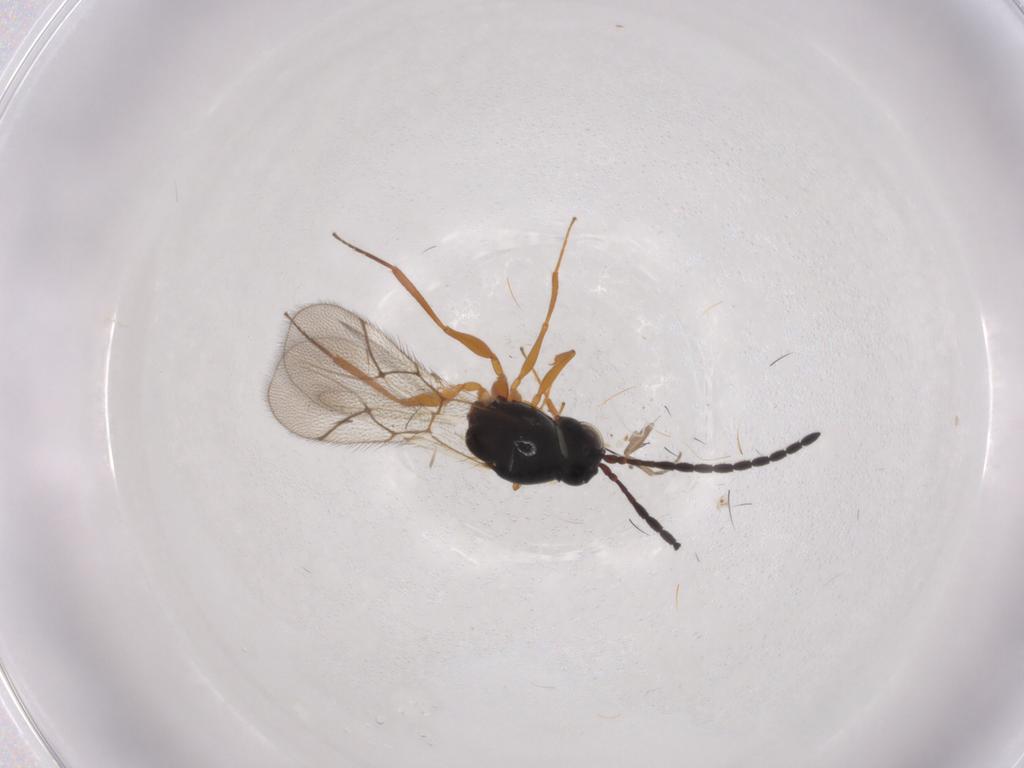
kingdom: Animalia
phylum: Arthropoda
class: Insecta
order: Hymenoptera
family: Figitidae
